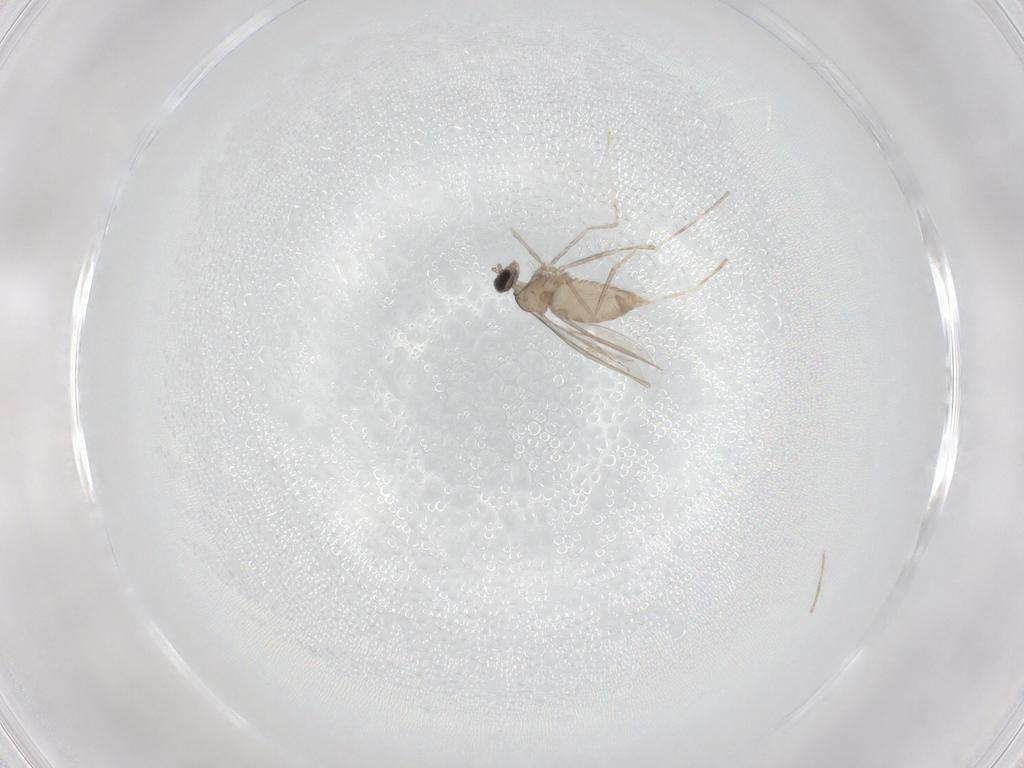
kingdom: Animalia
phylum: Arthropoda
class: Insecta
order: Diptera
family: Cecidomyiidae
